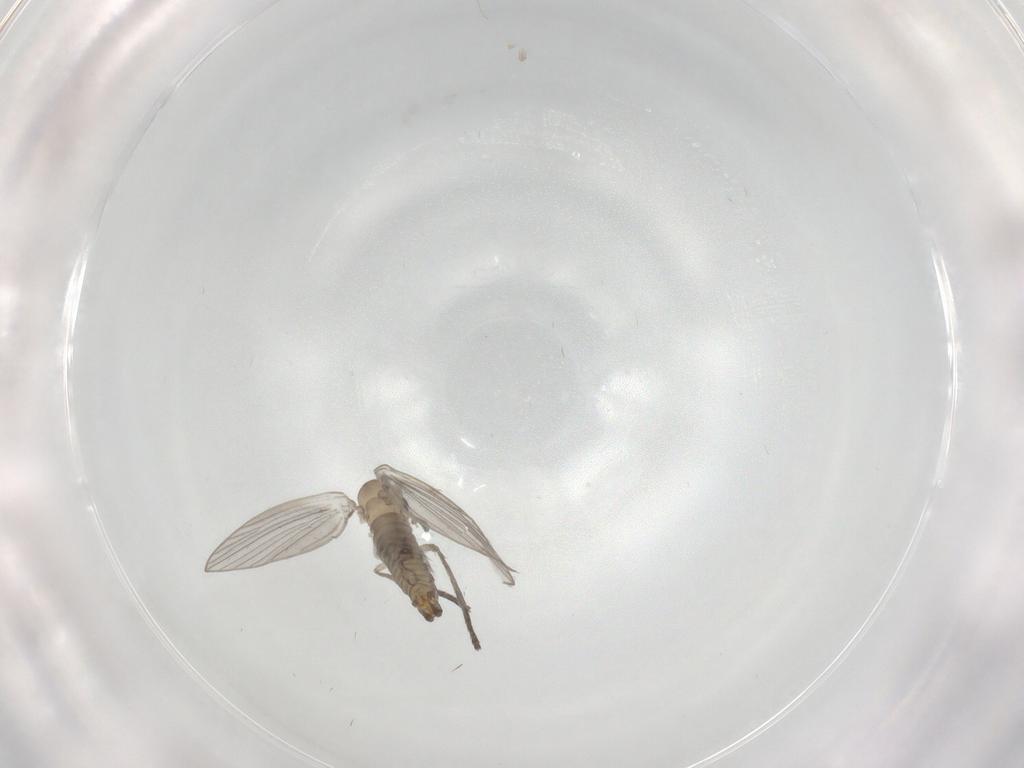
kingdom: Animalia
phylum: Arthropoda
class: Insecta
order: Diptera
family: Psychodidae
